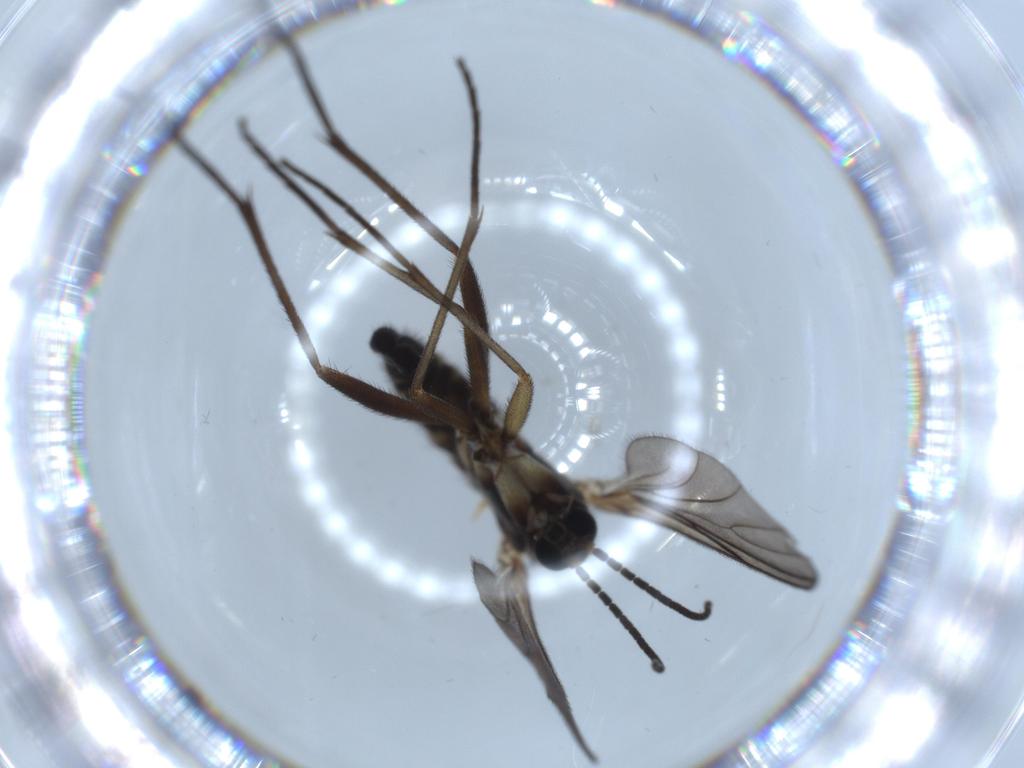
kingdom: Animalia
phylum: Arthropoda
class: Insecta
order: Diptera
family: Sciaridae
